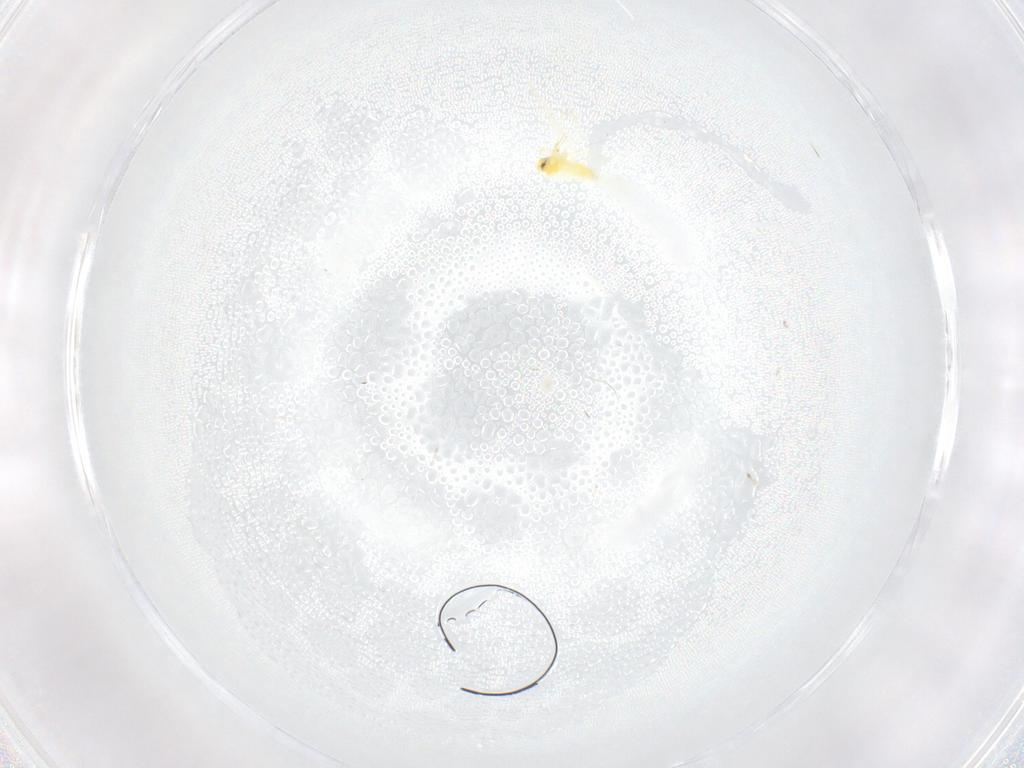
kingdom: Animalia
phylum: Arthropoda
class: Insecta
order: Hemiptera
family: Aleyrodidae
